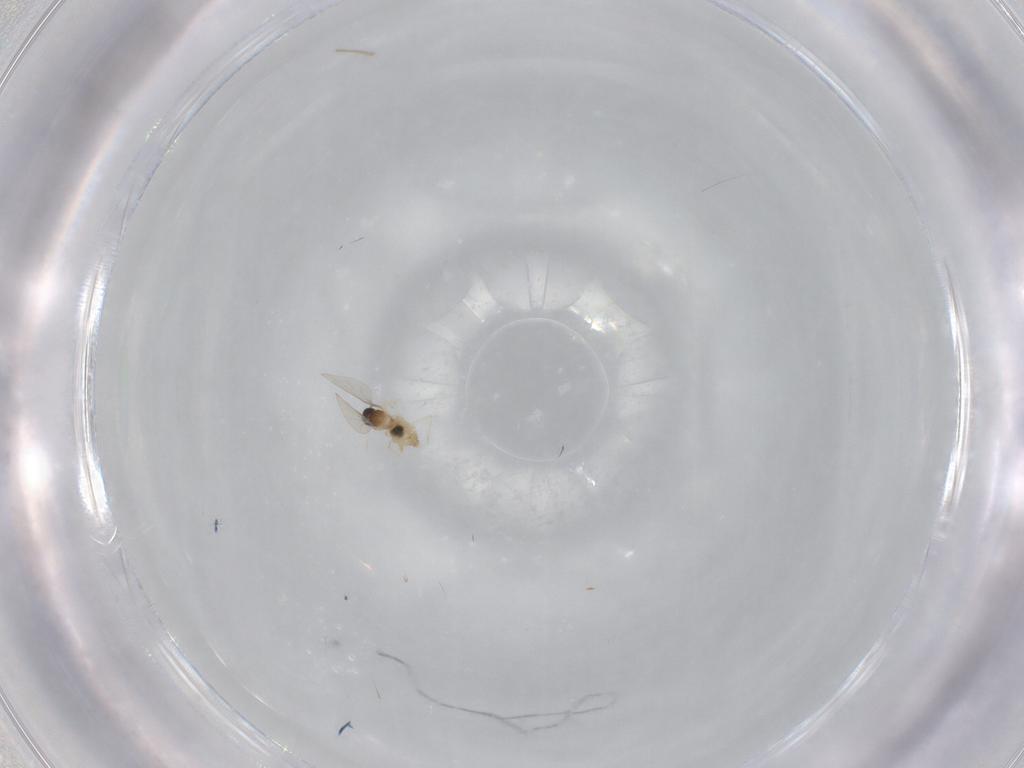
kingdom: Animalia
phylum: Arthropoda
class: Insecta
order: Diptera
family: Cecidomyiidae
